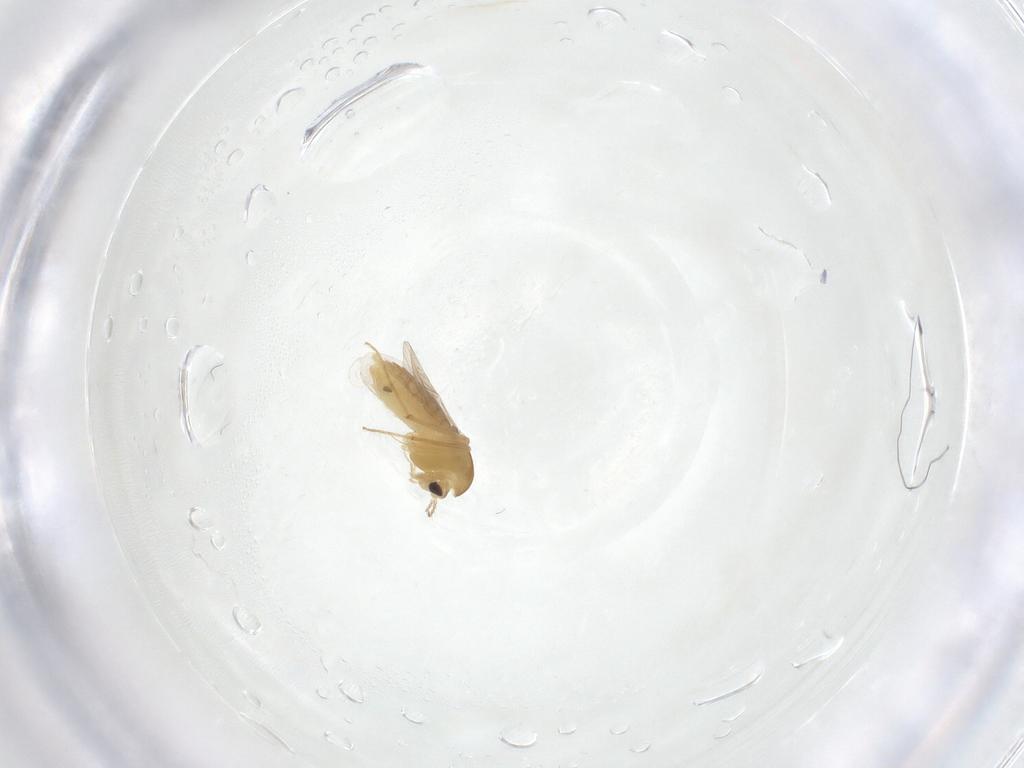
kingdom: Animalia
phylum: Arthropoda
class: Insecta
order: Diptera
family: Chironomidae
